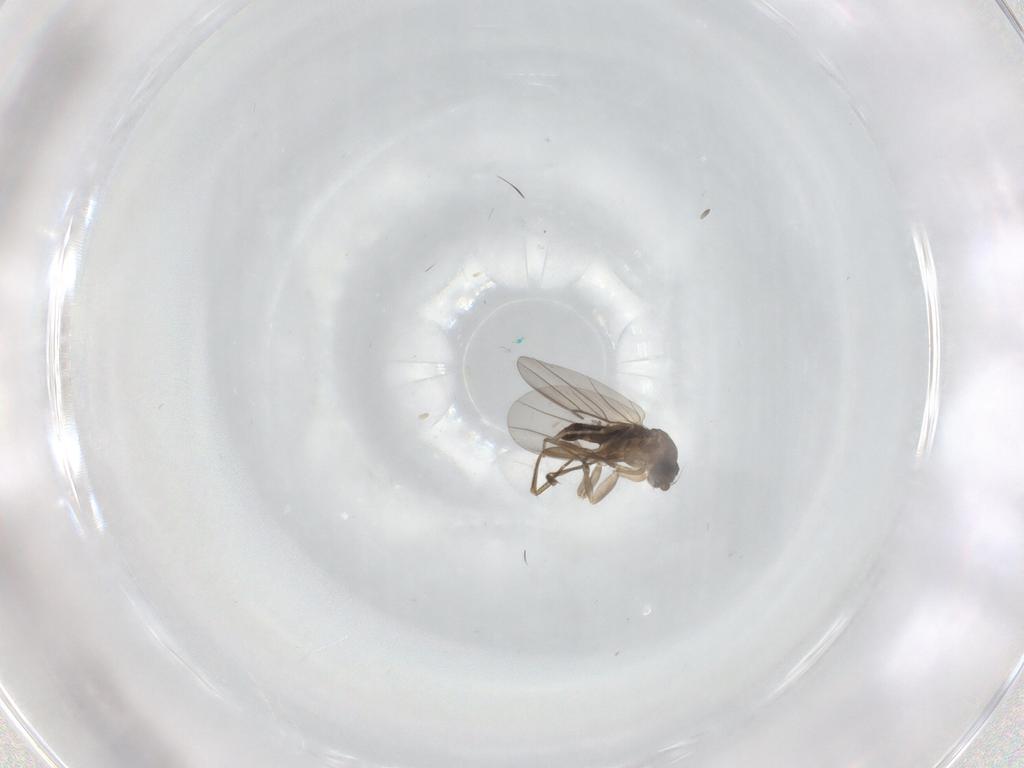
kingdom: Animalia
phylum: Arthropoda
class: Insecta
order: Diptera
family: Phoridae
